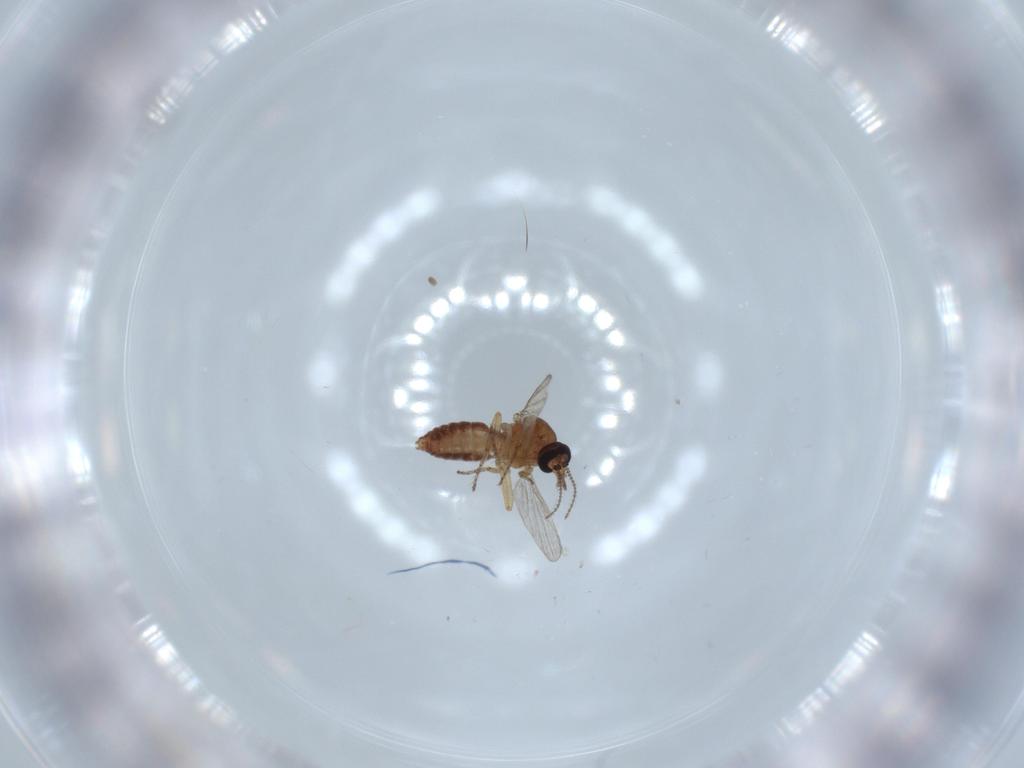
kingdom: Animalia
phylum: Arthropoda
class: Insecta
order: Diptera
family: Phoridae
